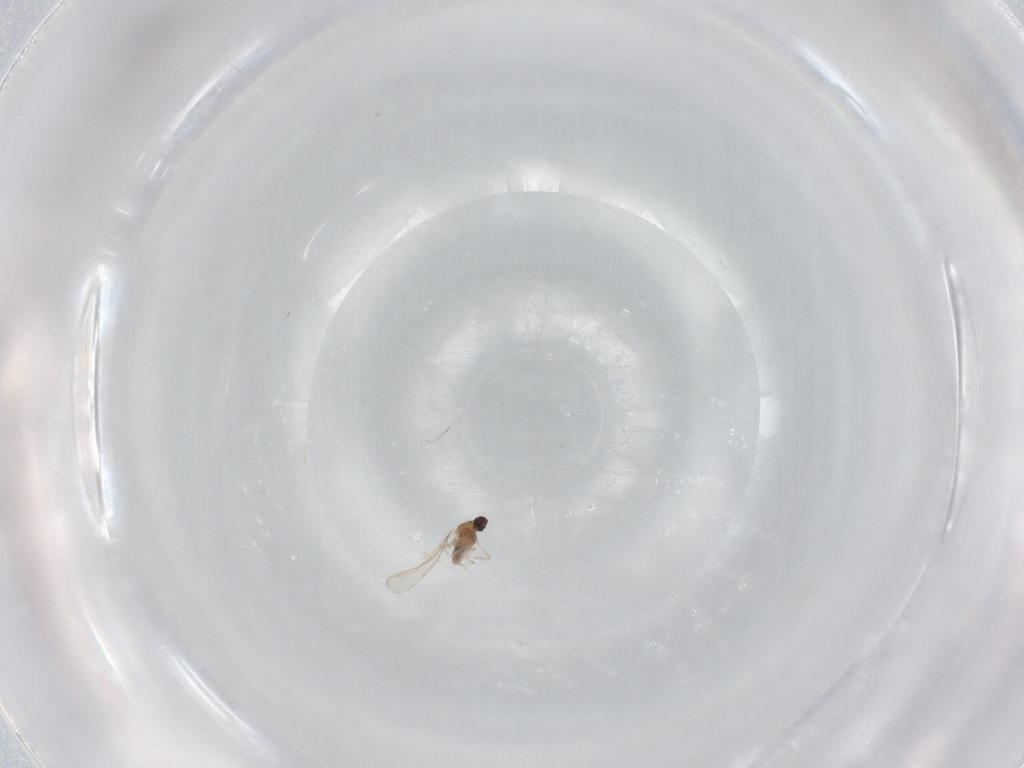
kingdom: Animalia
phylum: Arthropoda
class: Insecta
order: Diptera
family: Cecidomyiidae
